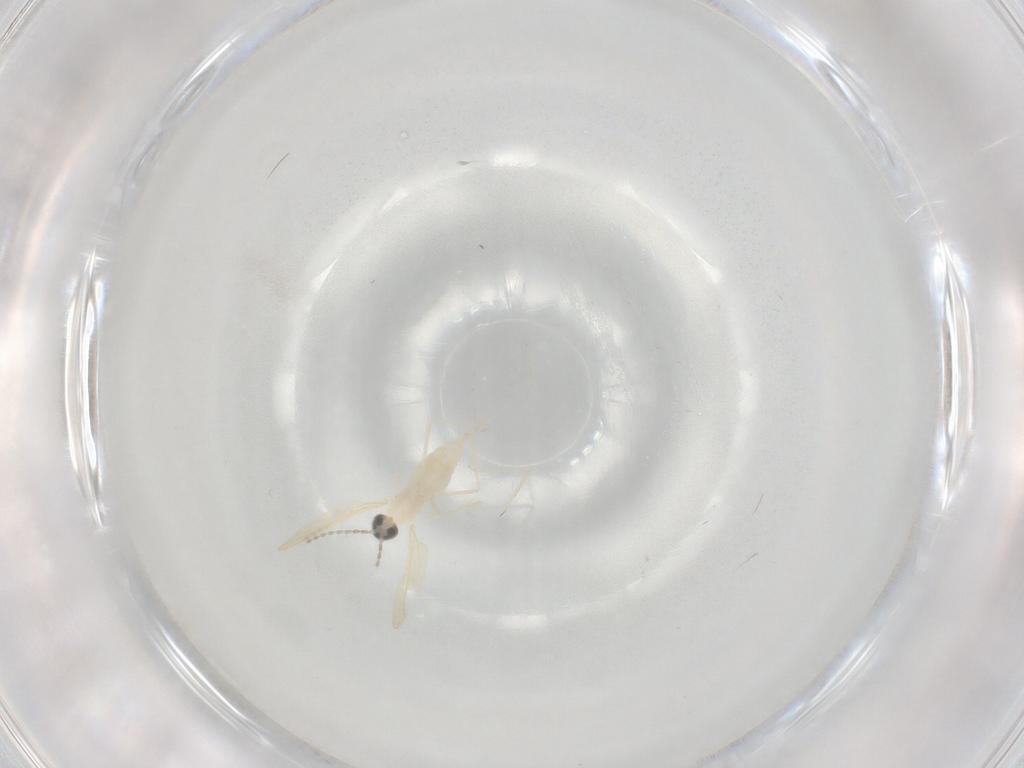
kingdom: Animalia
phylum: Arthropoda
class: Insecta
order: Diptera
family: Cecidomyiidae
